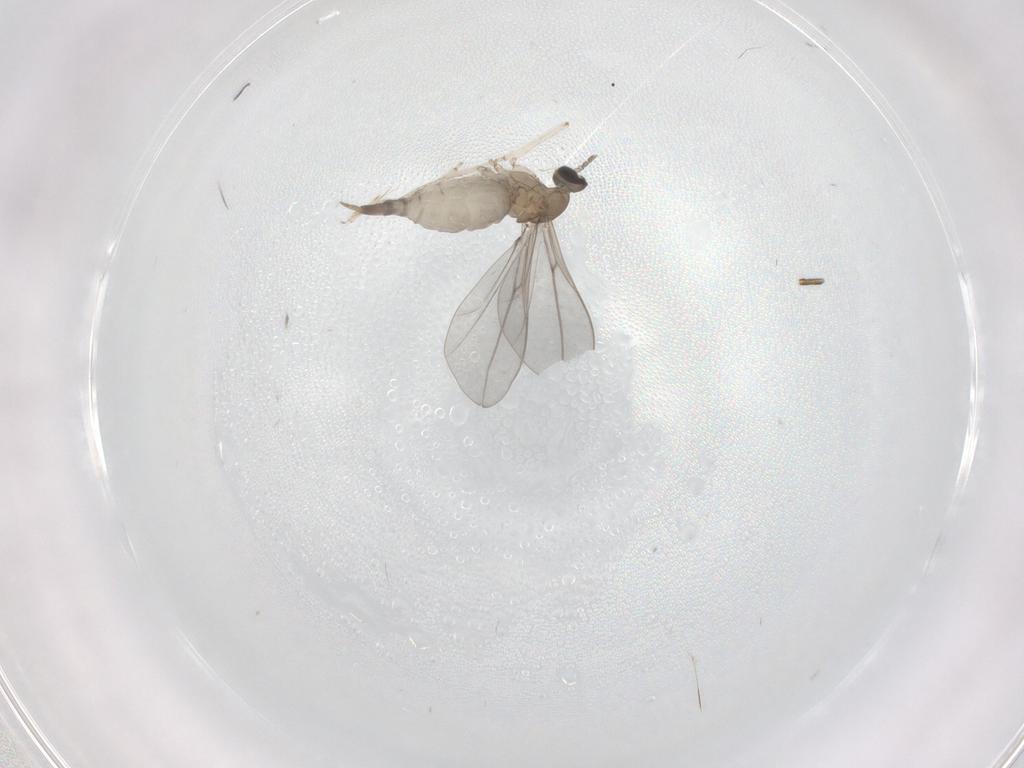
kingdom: Animalia
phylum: Arthropoda
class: Insecta
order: Diptera
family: Cecidomyiidae
